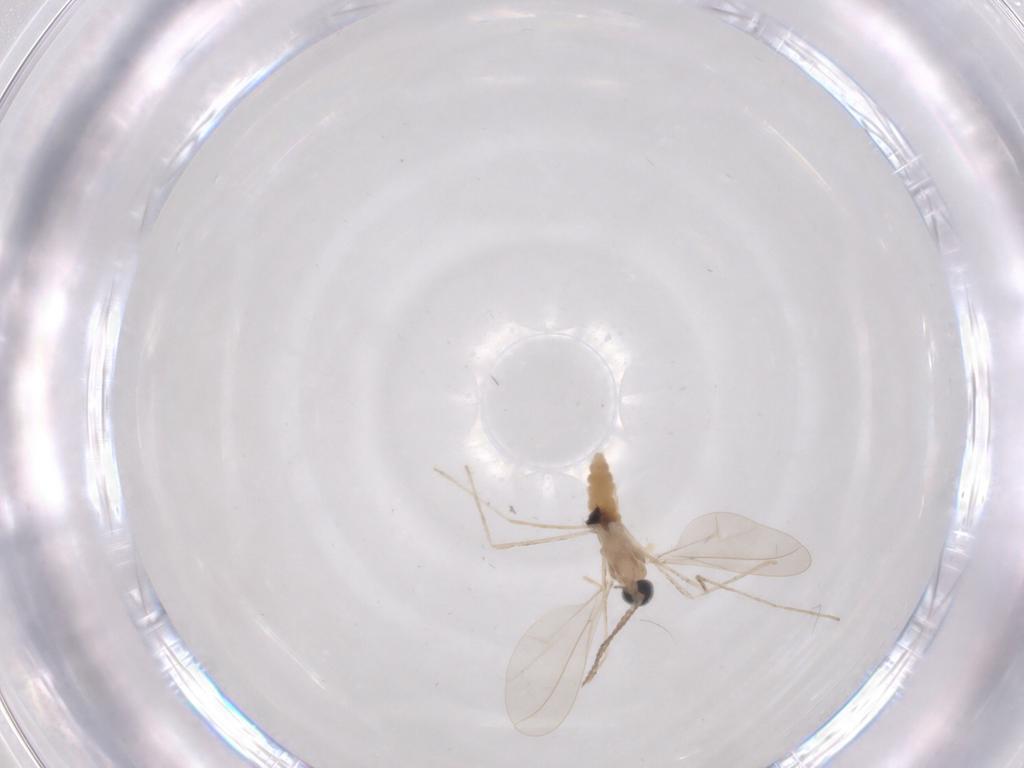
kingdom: Animalia
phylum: Arthropoda
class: Insecta
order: Diptera
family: Cecidomyiidae
